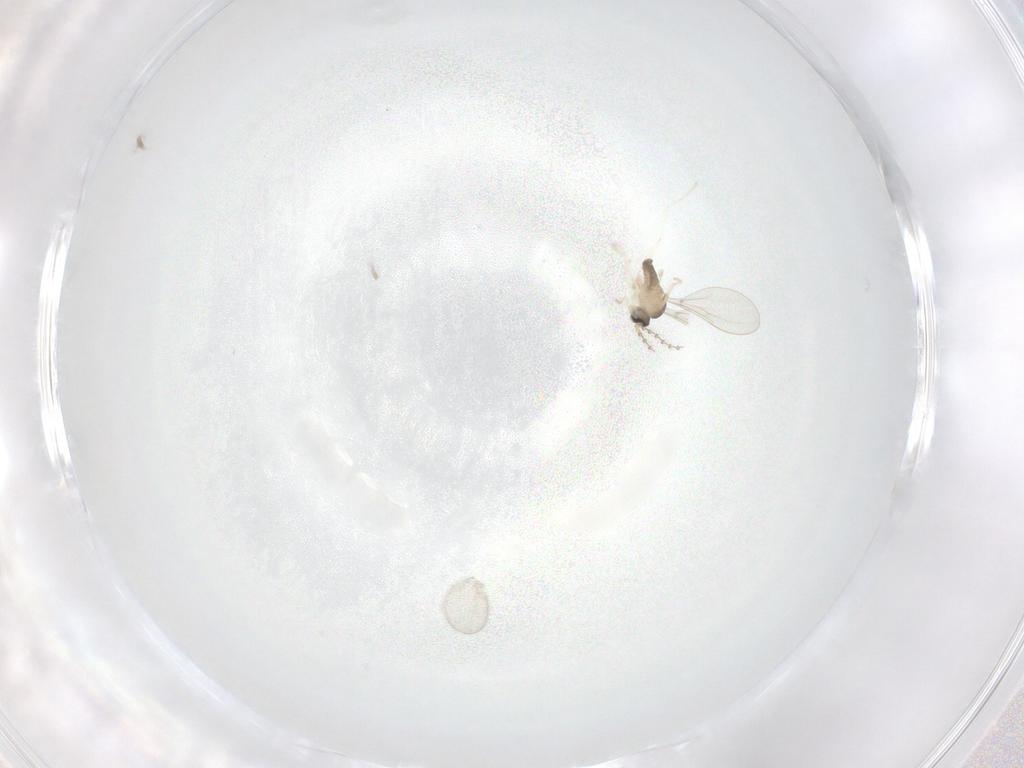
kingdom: Animalia
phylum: Arthropoda
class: Insecta
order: Diptera
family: Cecidomyiidae
